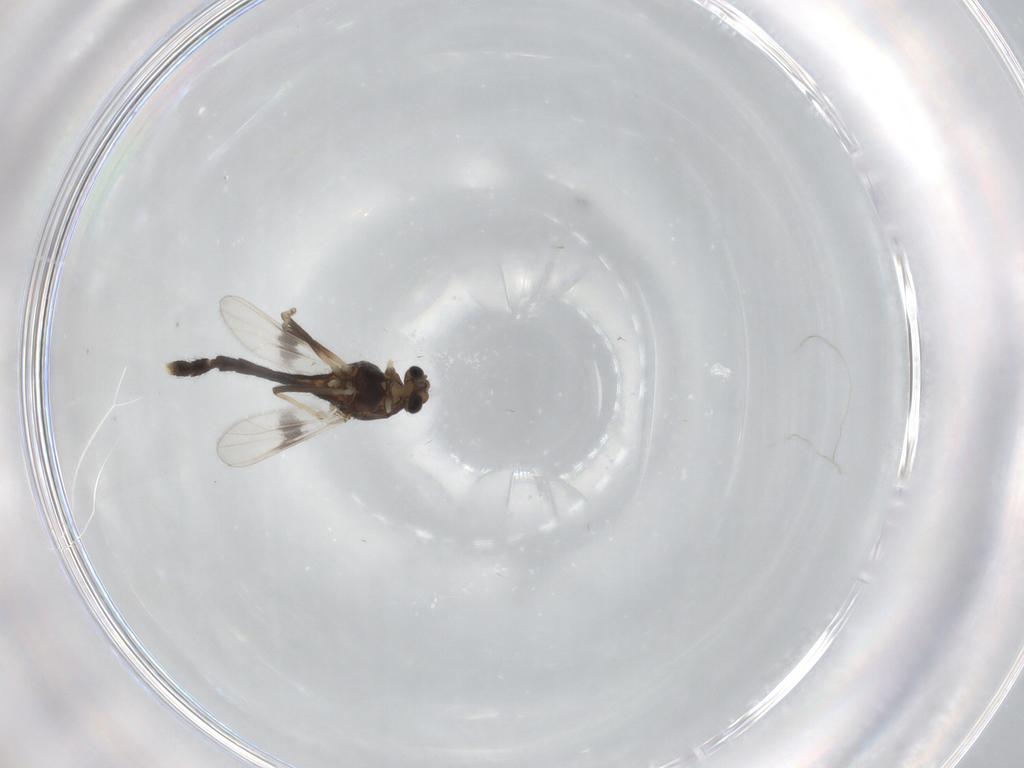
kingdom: Animalia
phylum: Arthropoda
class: Insecta
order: Diptera
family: Chironomidae
